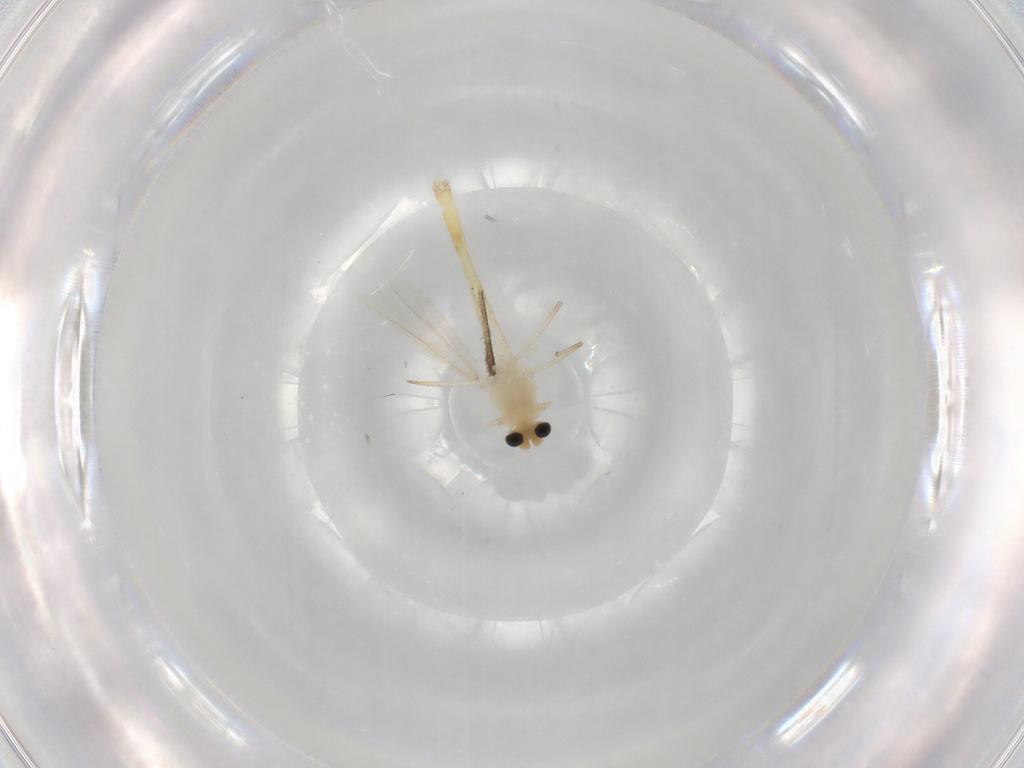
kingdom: Animalia
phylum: Arthropoda
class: Insecta
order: Diptera
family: Chironomidae
